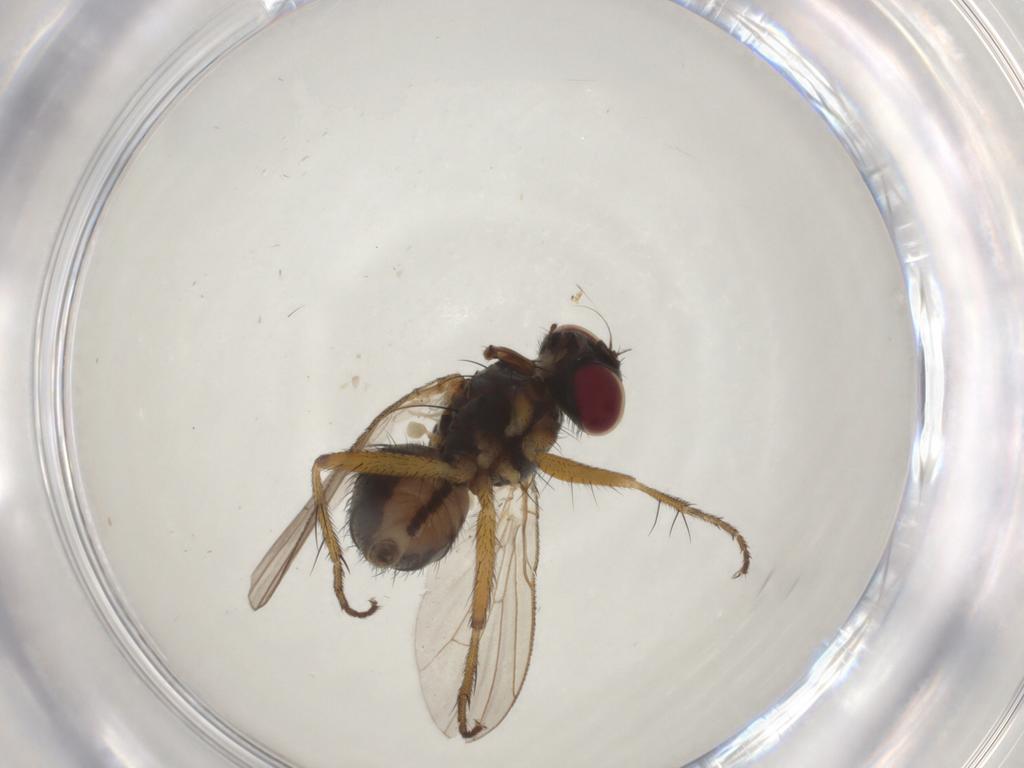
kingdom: Animalia
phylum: Arthropoda
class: Insecta
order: Diptera
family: Muscidae
